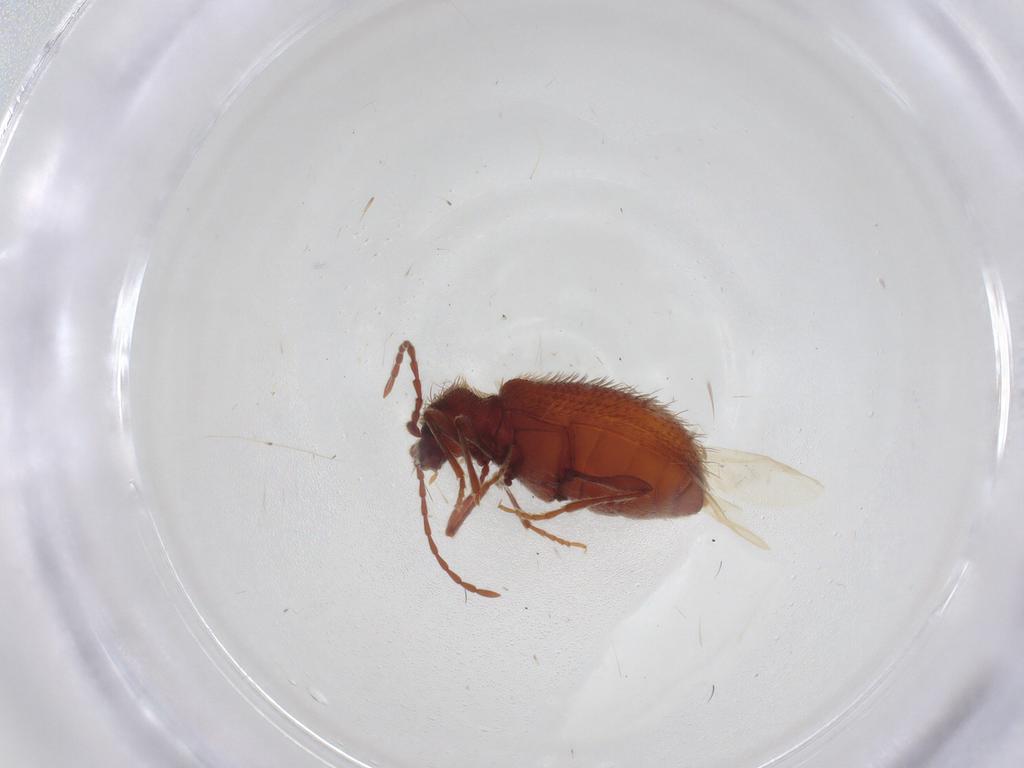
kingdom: Animalia
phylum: Arthropoda
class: Insecta
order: Coleoptera
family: Ptinidae
